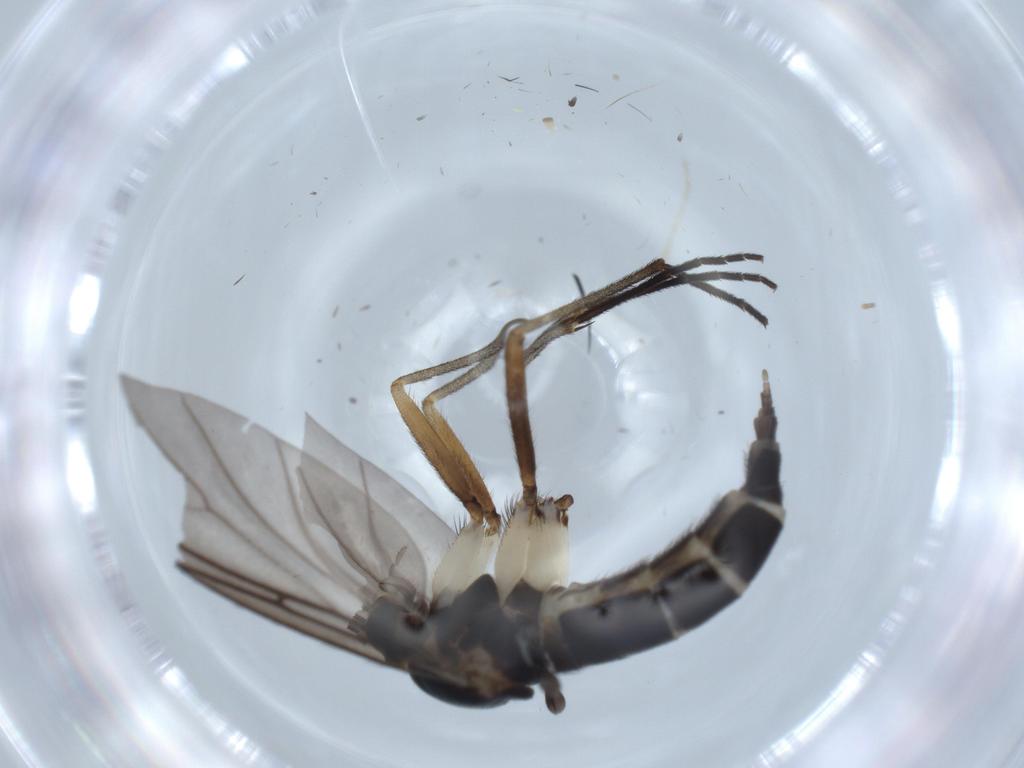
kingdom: Animalia
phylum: Arthropoda
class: Insecta
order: Diptera
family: Sciaridae
